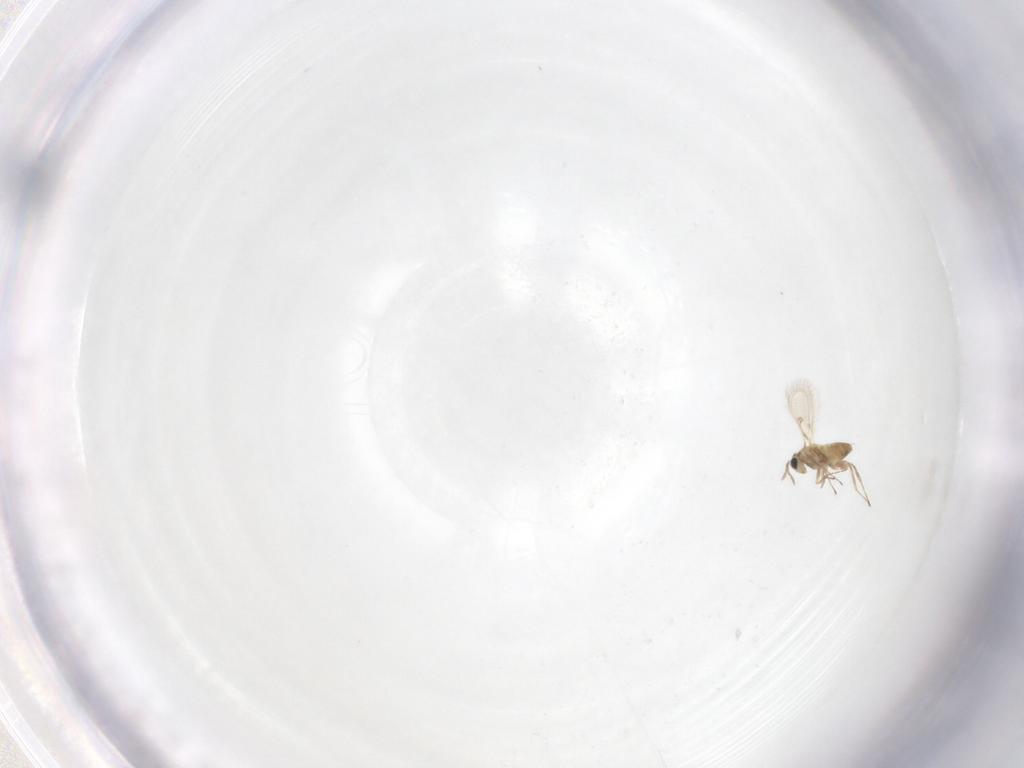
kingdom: Animalia
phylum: Arthropoda
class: Insecta
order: Hymenoptera
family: Trichogrammatidae
